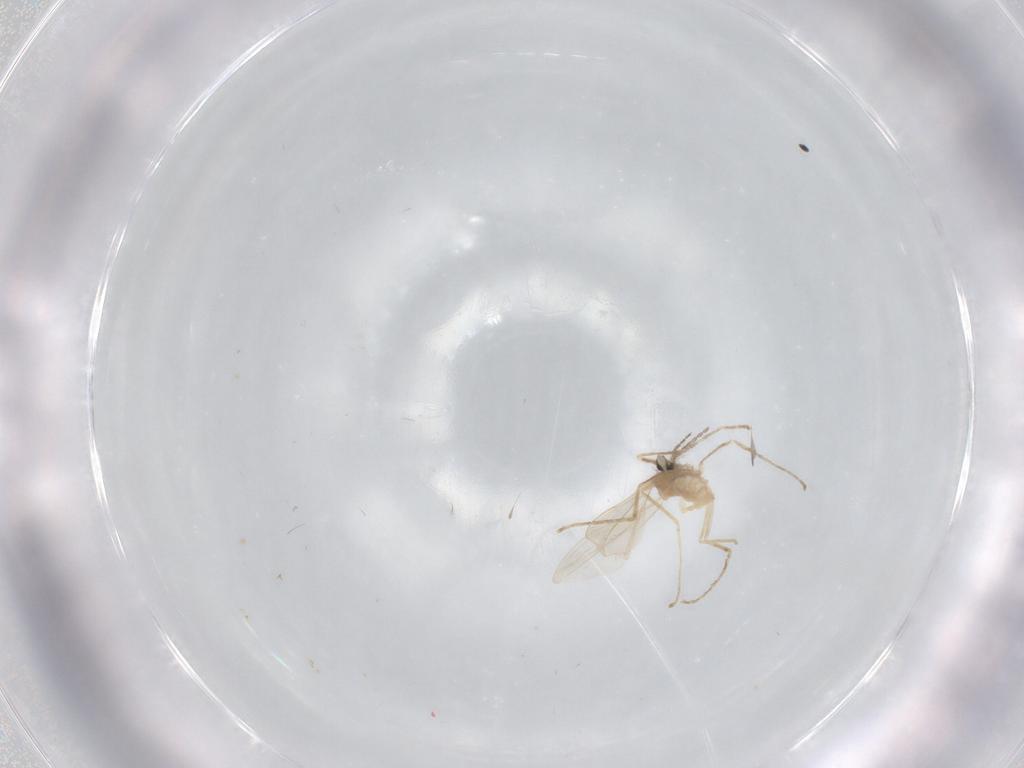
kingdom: Animalia
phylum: Arthropoda
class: Insecta
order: Diptera
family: Cecidomyiidae
